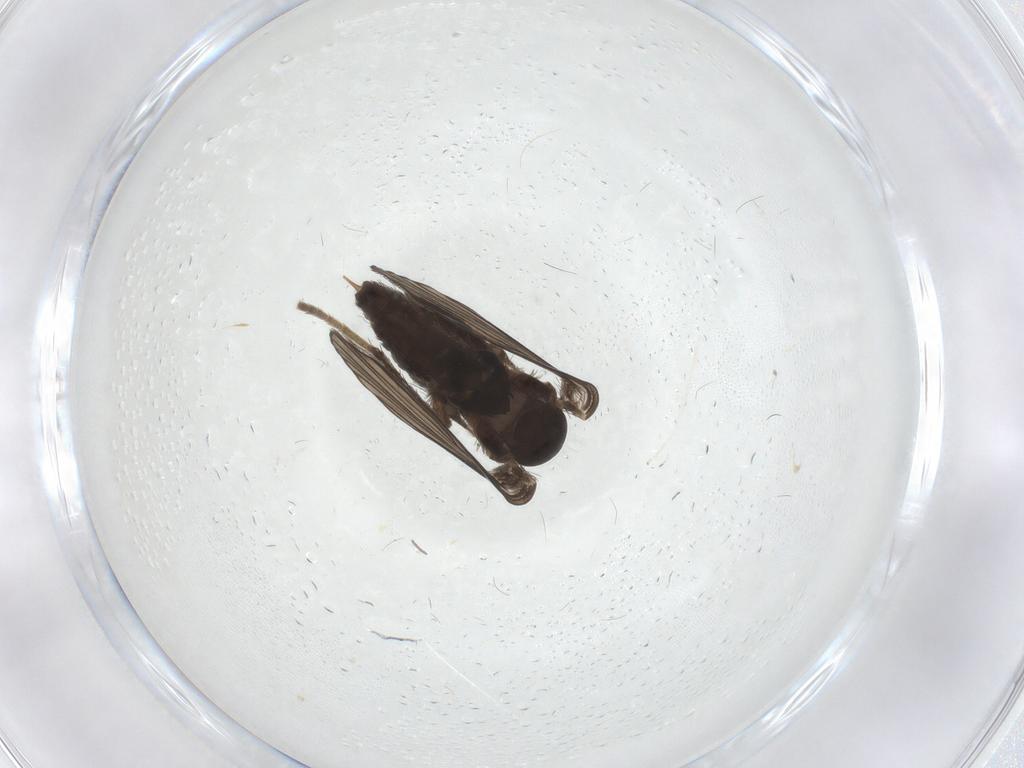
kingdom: Animalia
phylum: Arthropoda
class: Insecta
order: Diptera
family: Psychodidae
